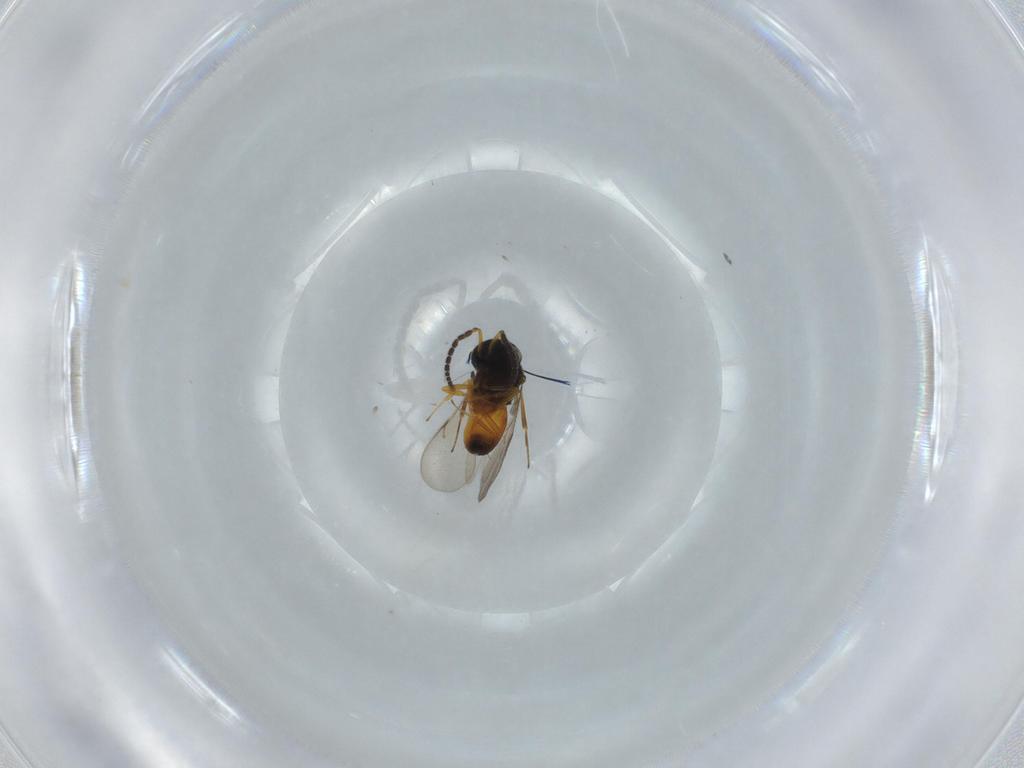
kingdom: Animalia
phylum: Arthropoda
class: Insecta
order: Hymenoptera
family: Scelionidae
